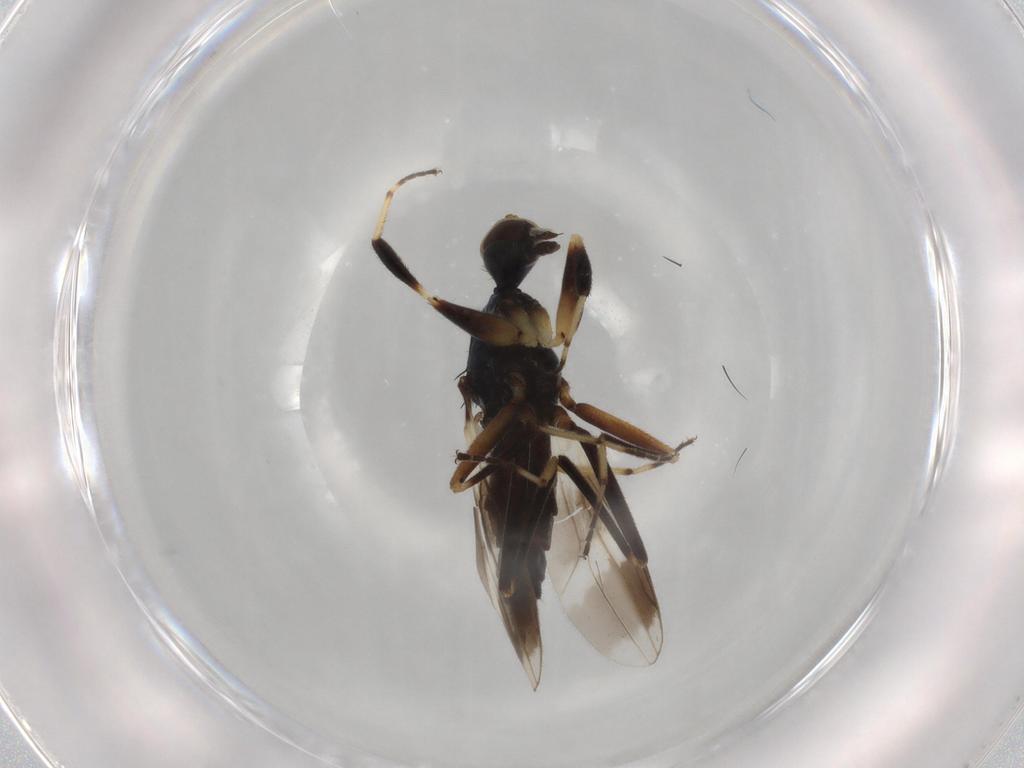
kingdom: Animalia
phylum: Arthropoda
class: Insecta
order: Diptera
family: Hybotidae
